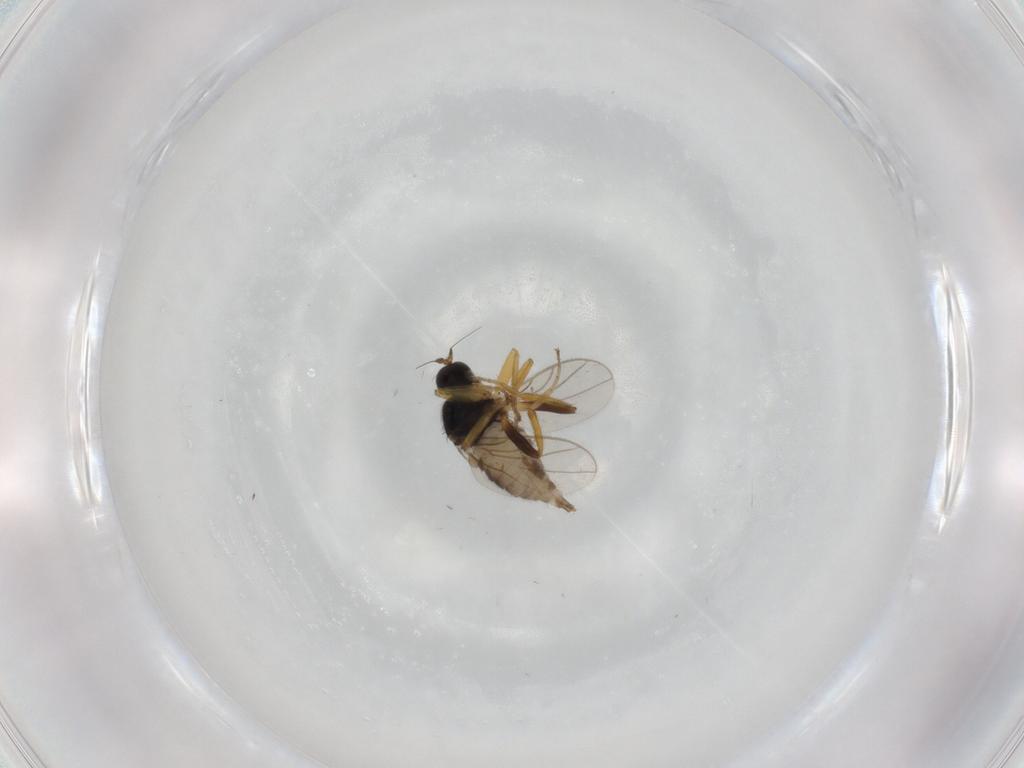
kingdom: Animalia
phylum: Arthropoda
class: Insecta
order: Diptera
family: Hybotidae
